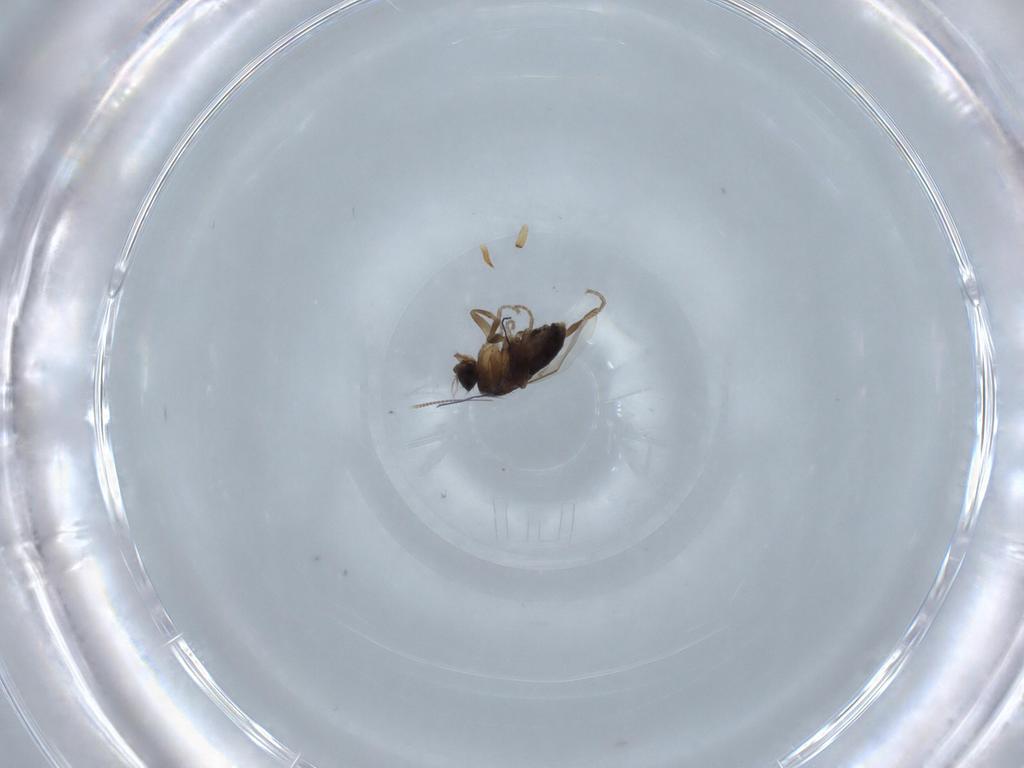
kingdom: Animalia
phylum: Arthropoda
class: Insecta
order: Diptera
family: Phoridae
